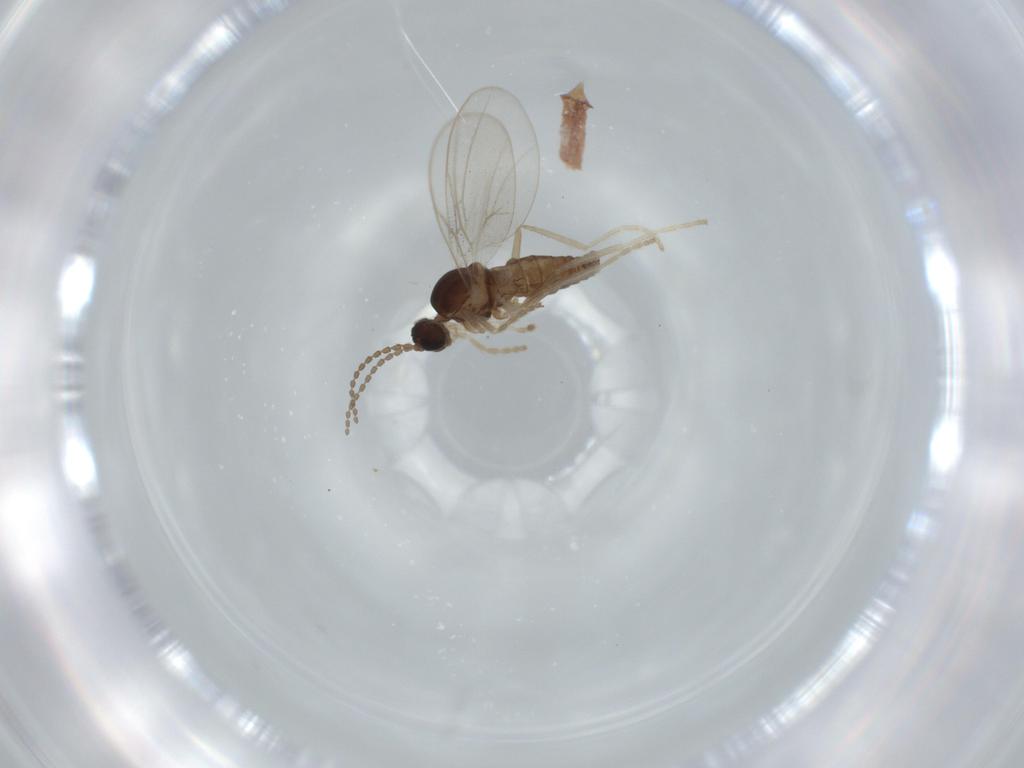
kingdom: Animalia
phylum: Arthropoda
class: Insecta
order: Diptera
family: Cecidomyiidae
